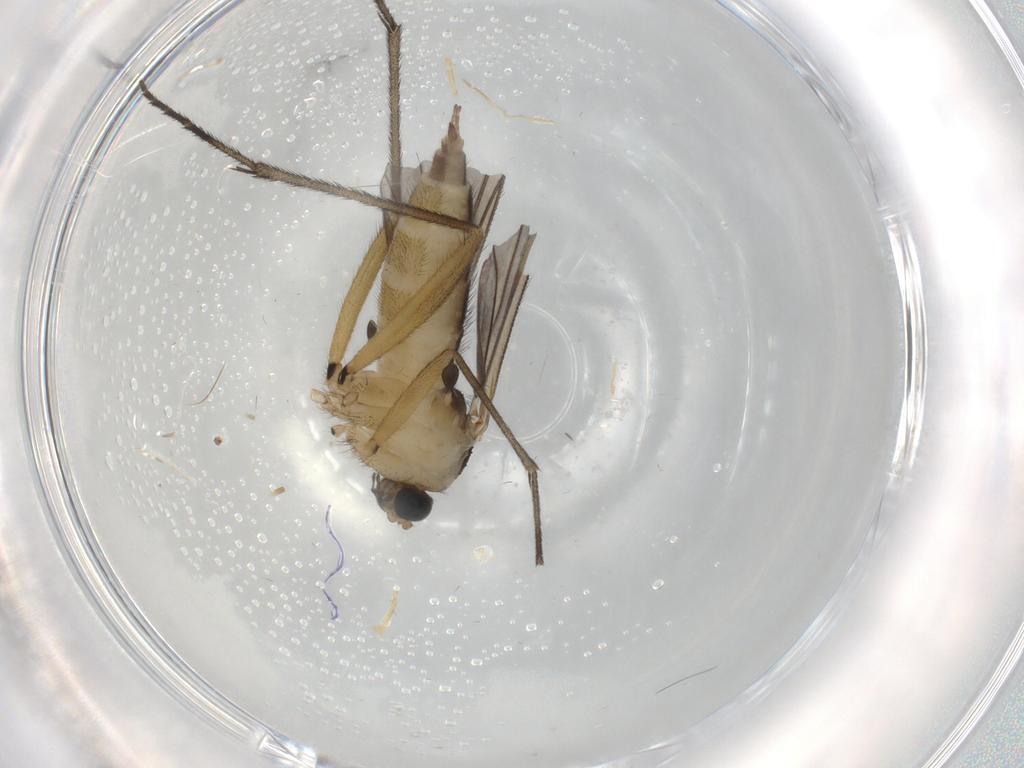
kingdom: Animalia
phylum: Arthropoda
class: Insecta
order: Diptera
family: Sciaridae
